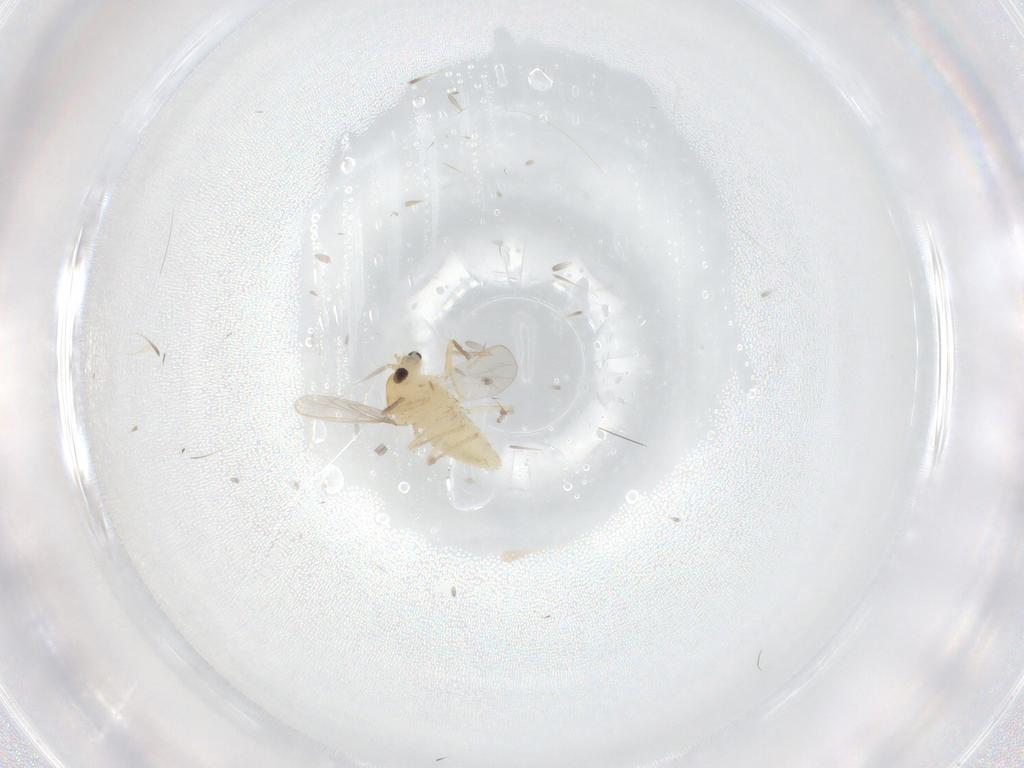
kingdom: Animalia
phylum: Arthropoda
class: Insecta
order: Diptera
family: Chironomidae
